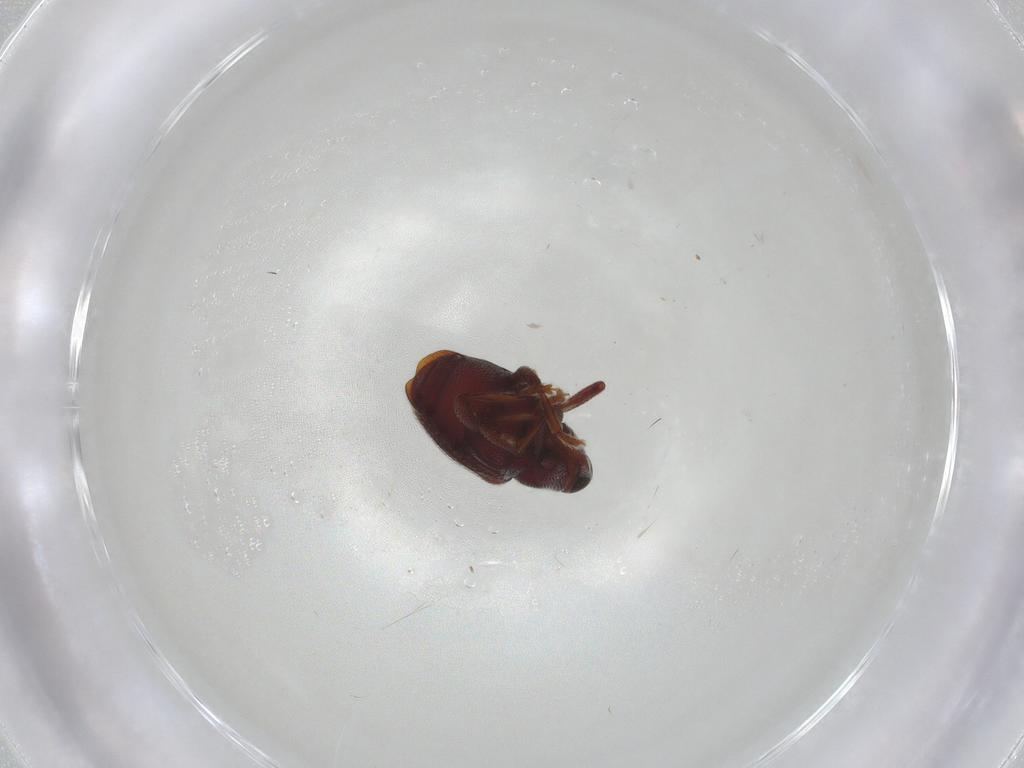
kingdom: Animalia
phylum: Arthropoda
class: Insecta
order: Coleoptera
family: Curculionidae
